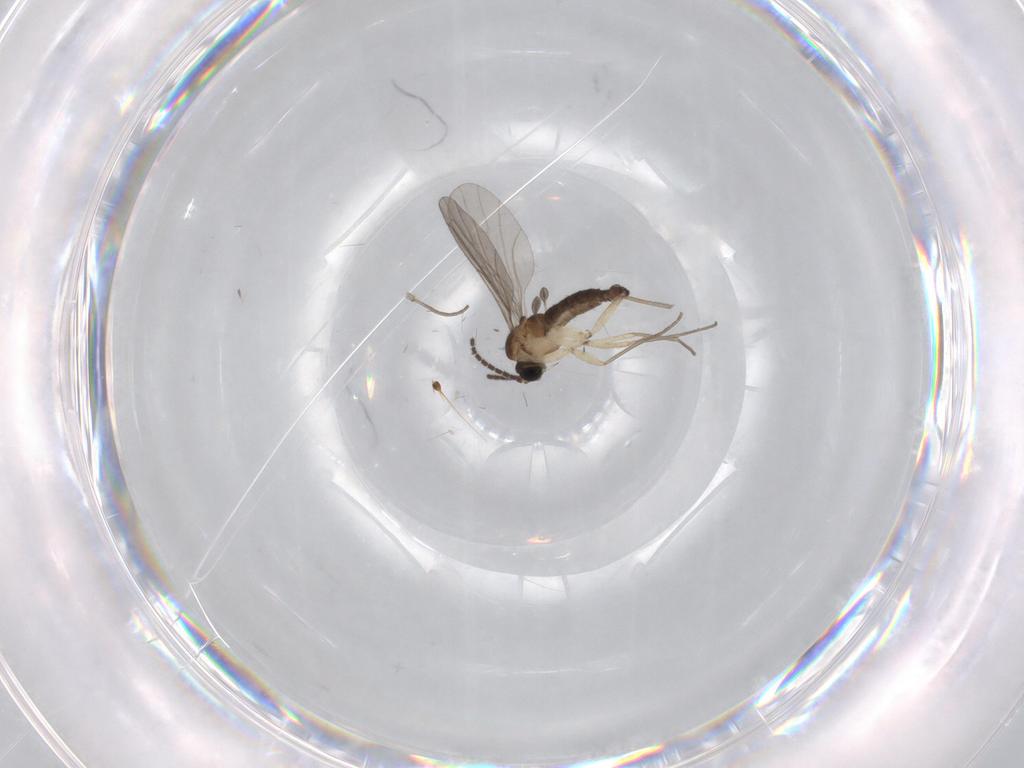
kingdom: Animalia
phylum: Arthropoda
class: Insecta
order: Diptera
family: Sciaridae
